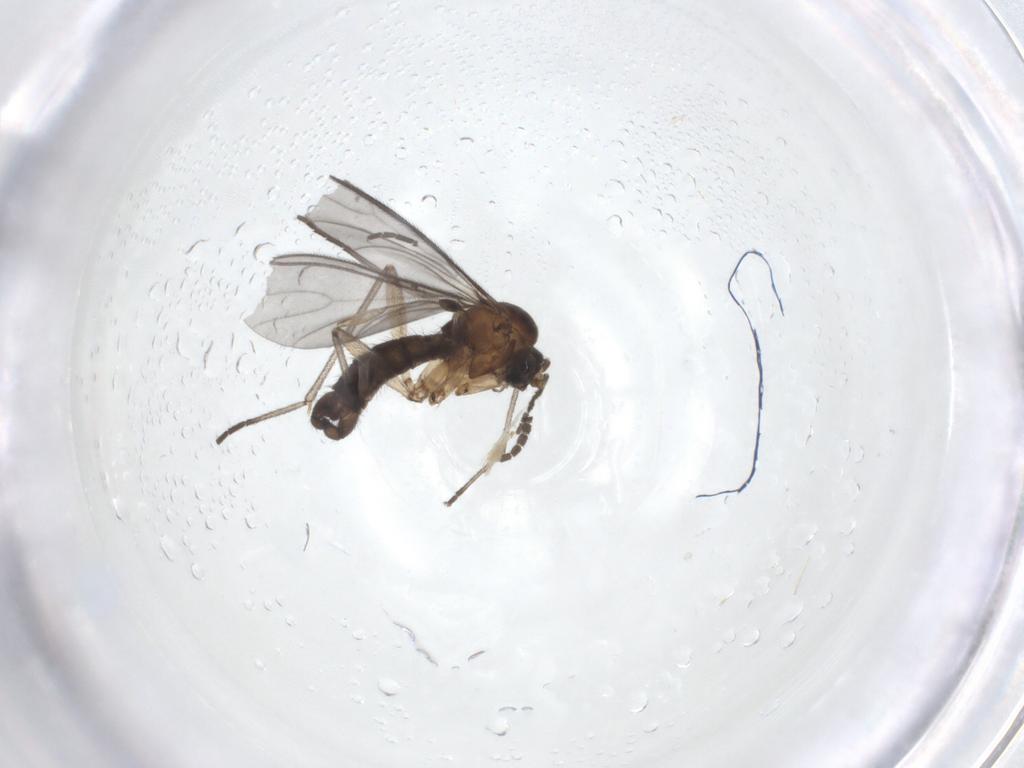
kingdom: Animalia
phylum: Arthropoda
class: Insecta
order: Diptera
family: Sciaridae
